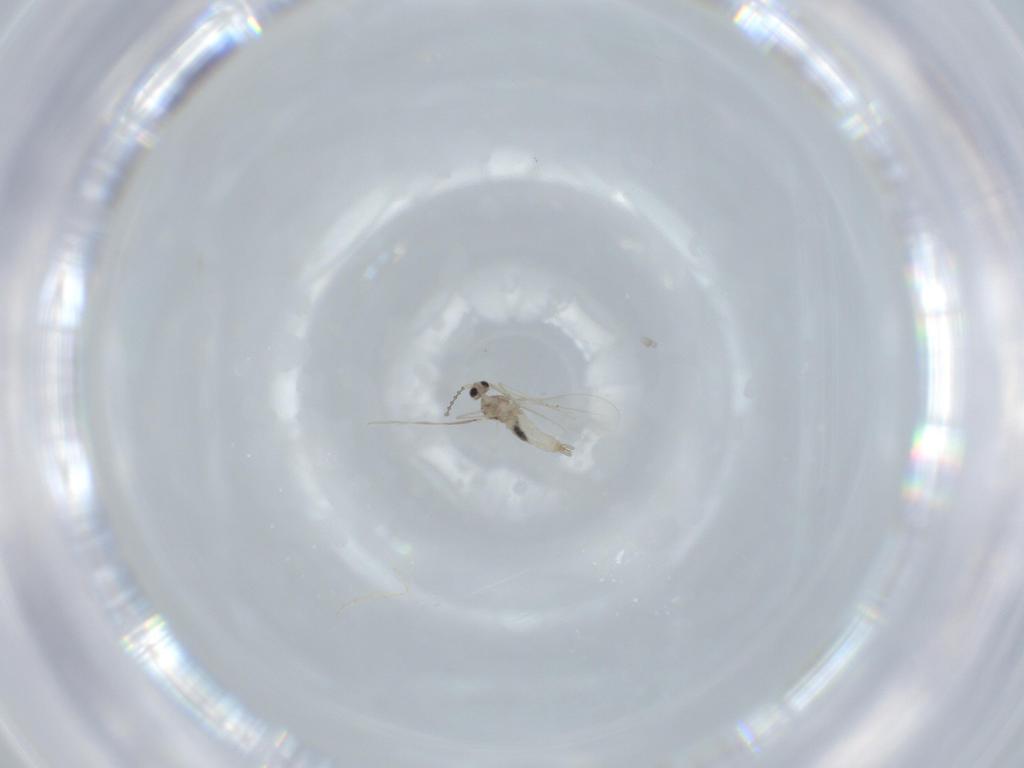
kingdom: Animalia
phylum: Arthropoda
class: Insecta
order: Diptera
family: Cecidomyiidae
